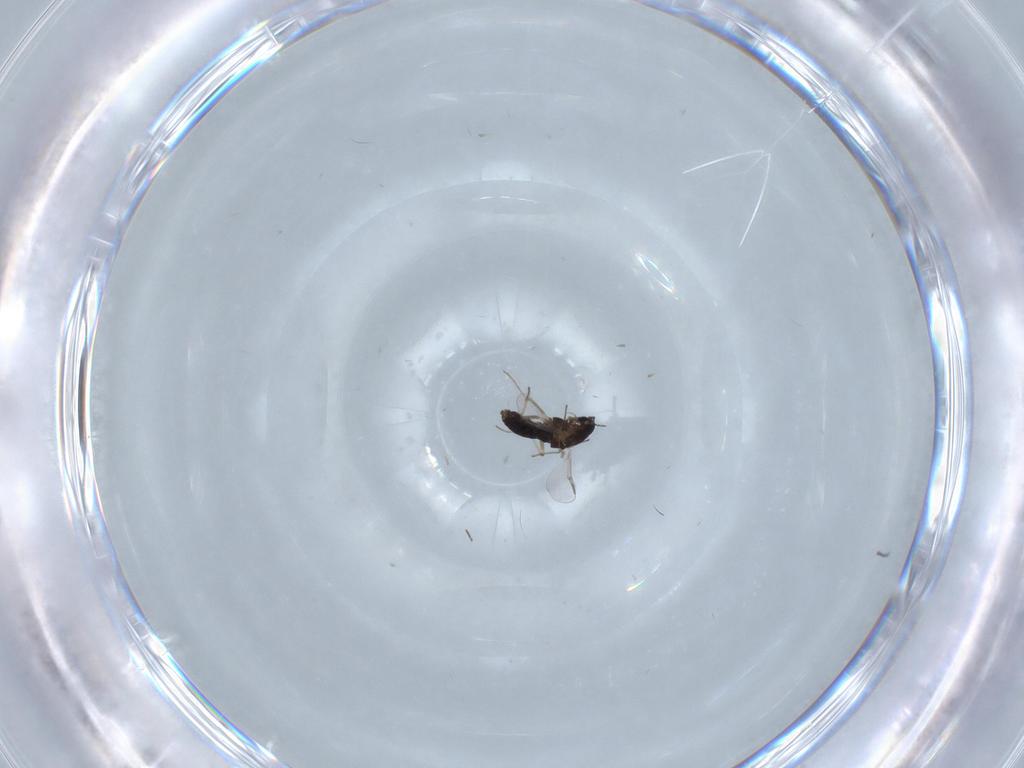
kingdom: Animalia
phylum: Arthropoda
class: Insecta
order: Diptera
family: Chironomidae
